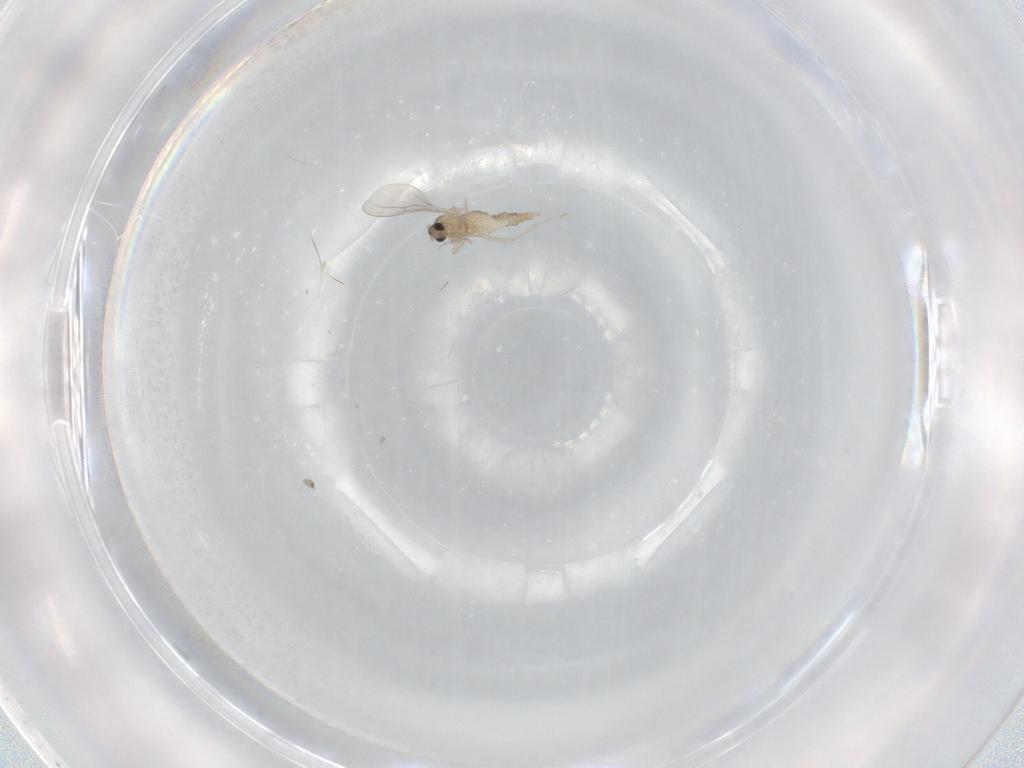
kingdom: Animalia
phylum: Arthropoda
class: Insecta
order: Diptera
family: Cecidomyiidae
